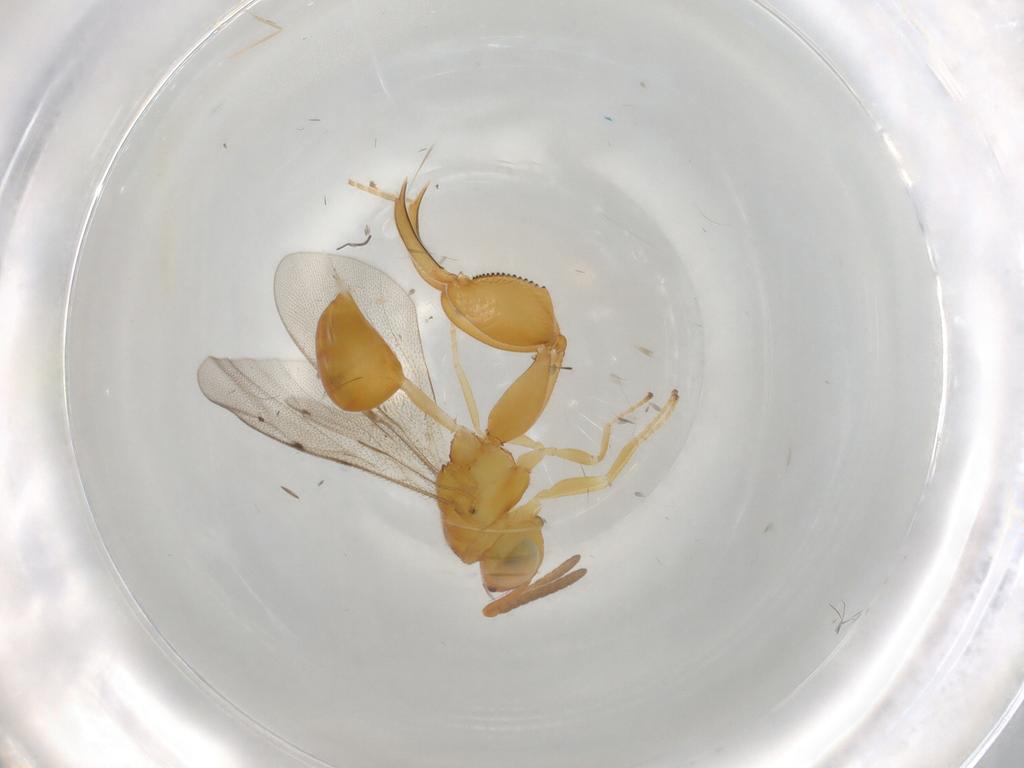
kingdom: Animalia
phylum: Arthropoda
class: Insecta
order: Hymenoptera
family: Chalcididae
